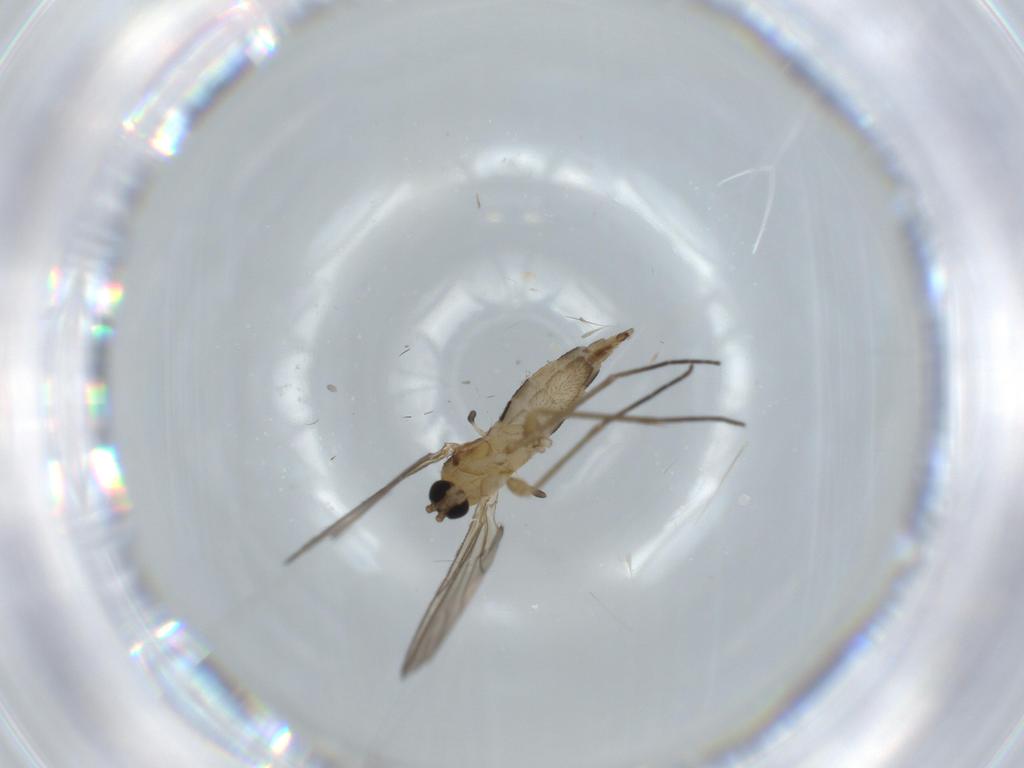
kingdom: Animalia
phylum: Arthropoda
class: Insecta
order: Diptera
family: Sciaridae
